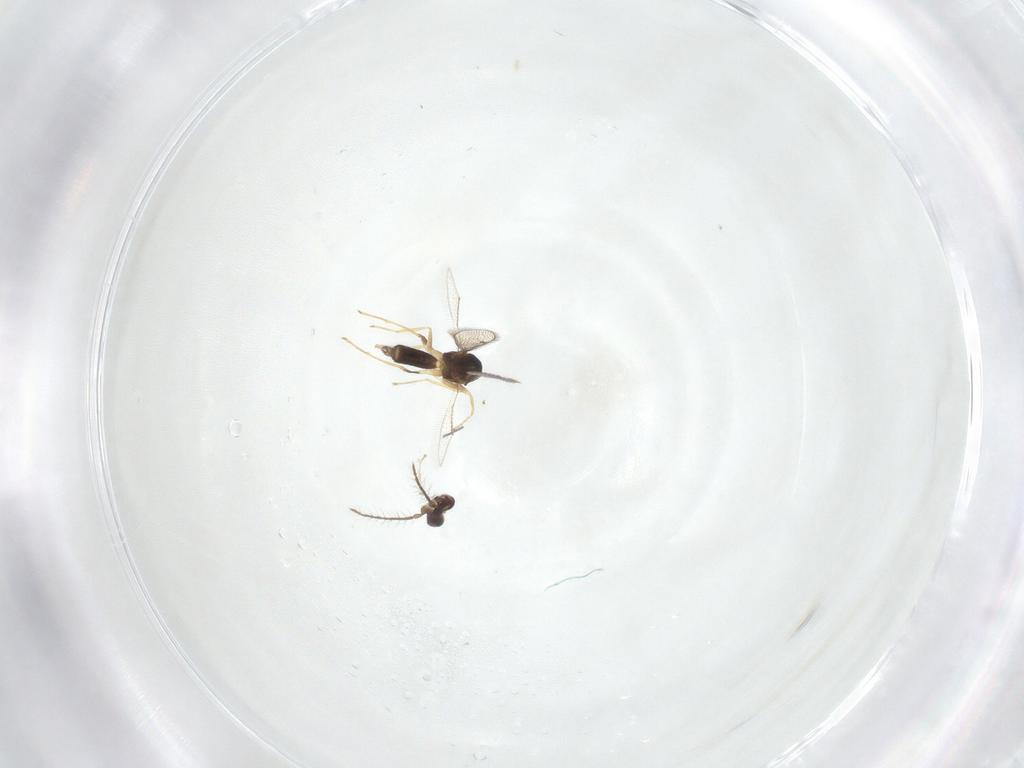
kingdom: Animalia
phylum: Arthropoda
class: Insecta
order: Hymenoptera
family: Eulophidae
